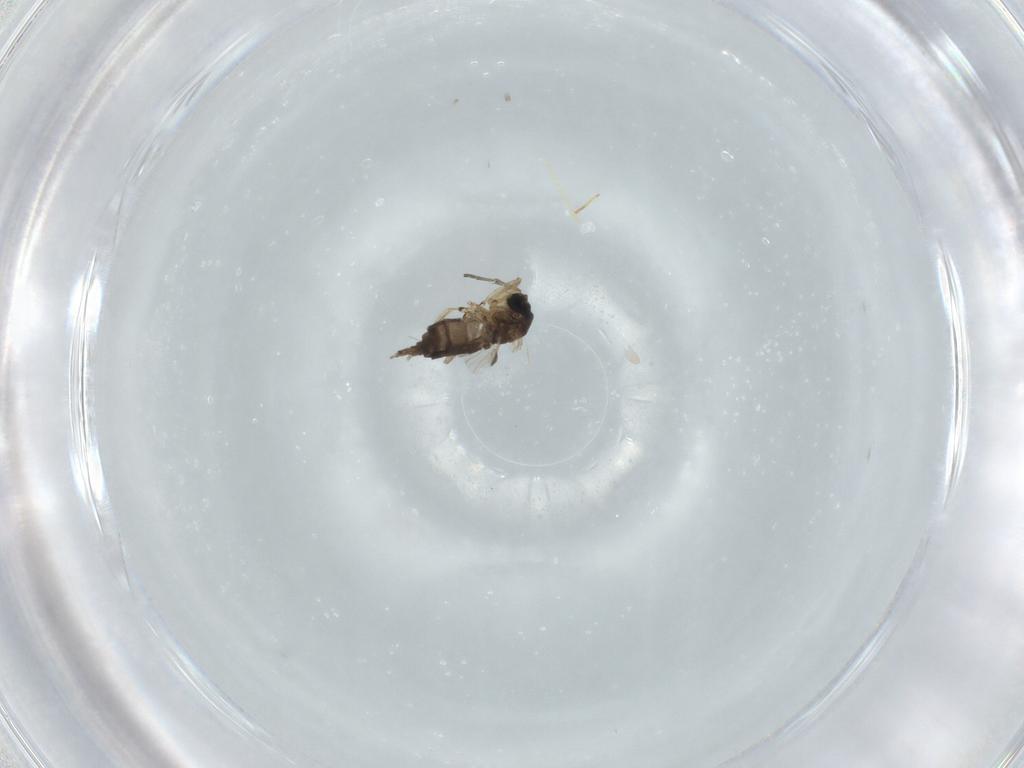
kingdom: Animalia
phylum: Arthropoda
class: Insecta
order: Diptera
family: Sciaridae
